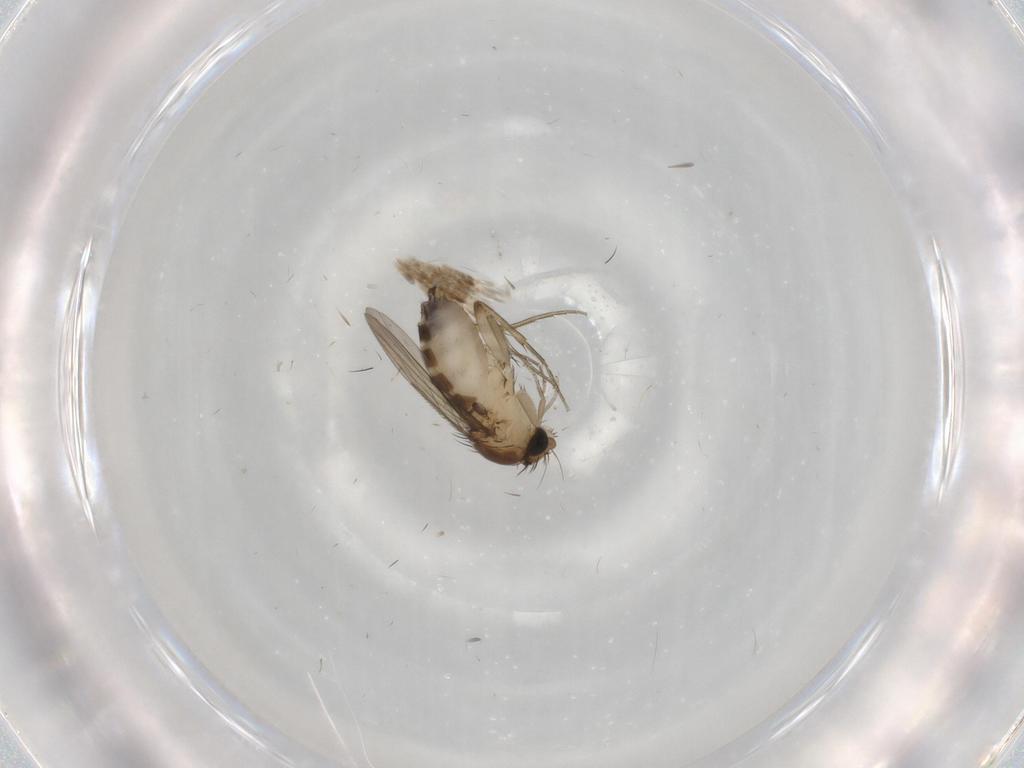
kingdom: Animalia
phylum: Arthropoda
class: Insecta
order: Diptera
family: Phoridae
